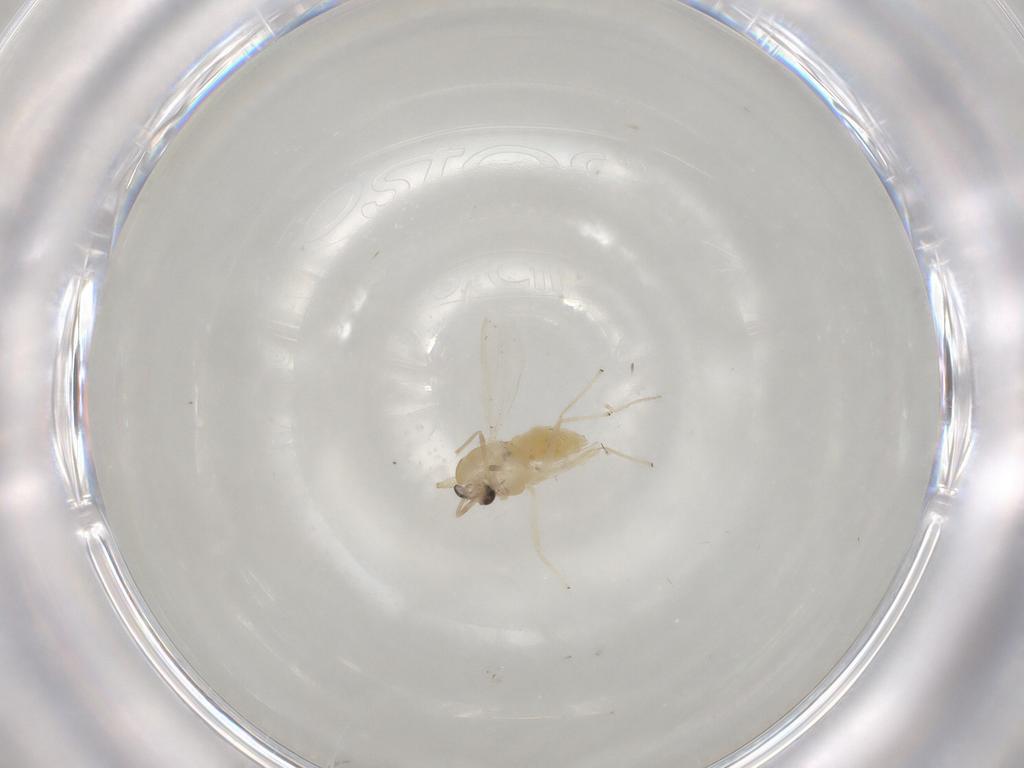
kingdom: Animalia
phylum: Arthropoda
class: Insecta
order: Diptera
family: Chironomidae
